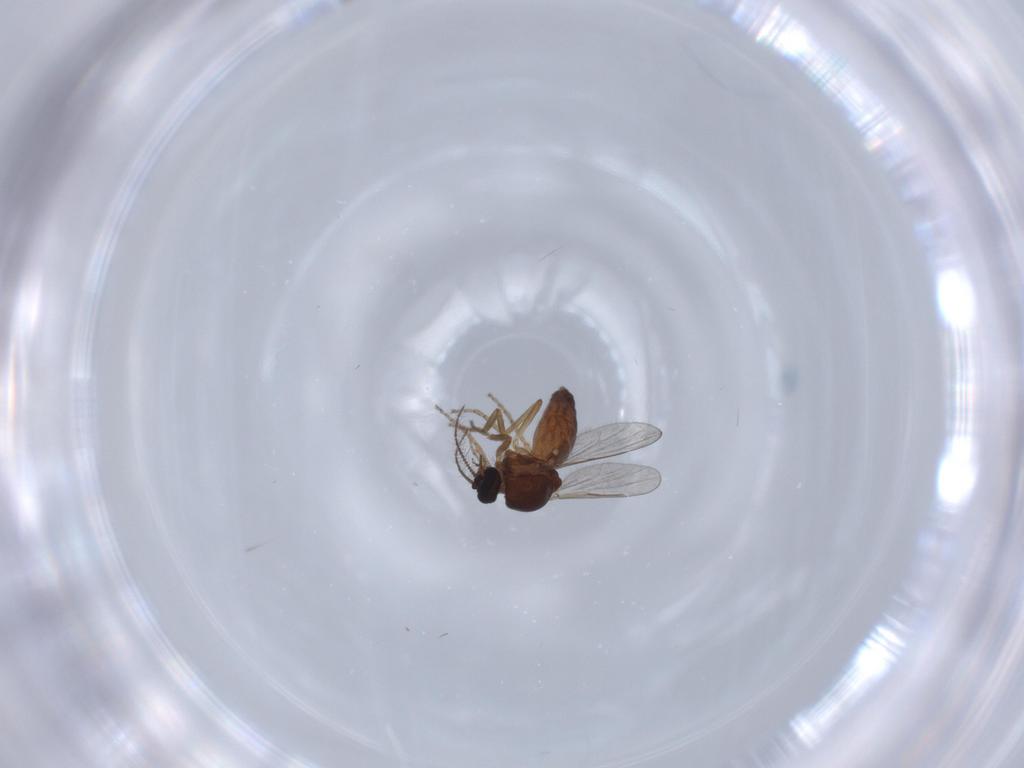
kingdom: Animalia
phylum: Arthropoda
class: Insecta
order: Diptera
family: Ceratopogonidae
